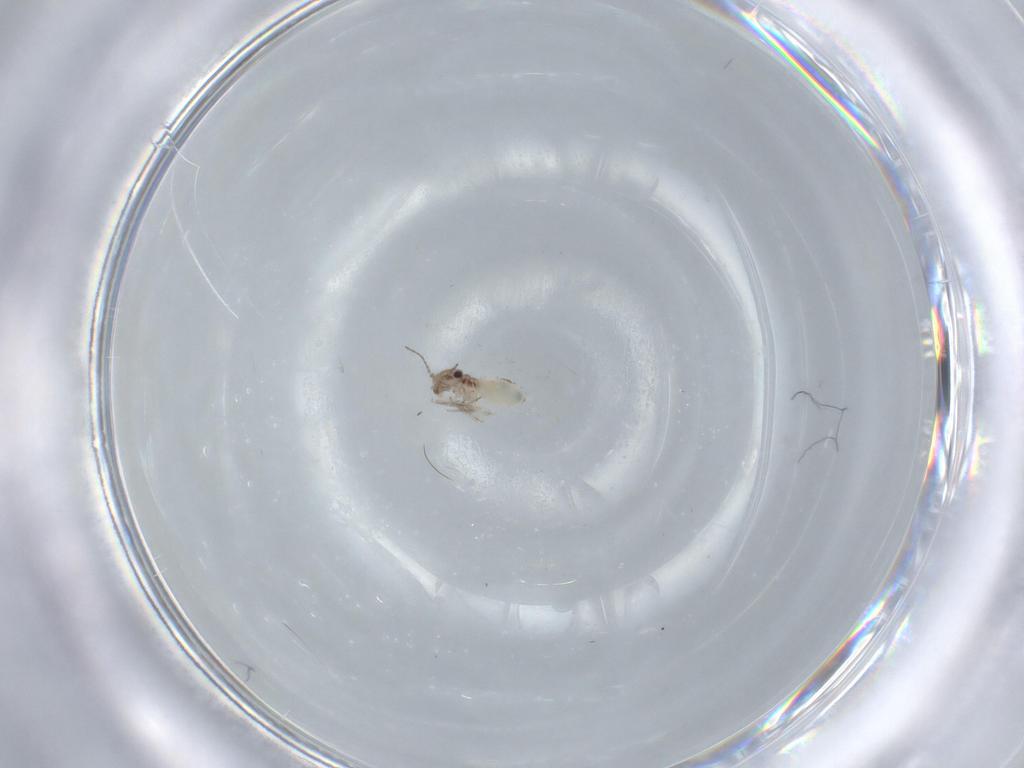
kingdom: Animalia
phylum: Arthropoda
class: Insecta
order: Psocodea
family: Lepidopsocidae
